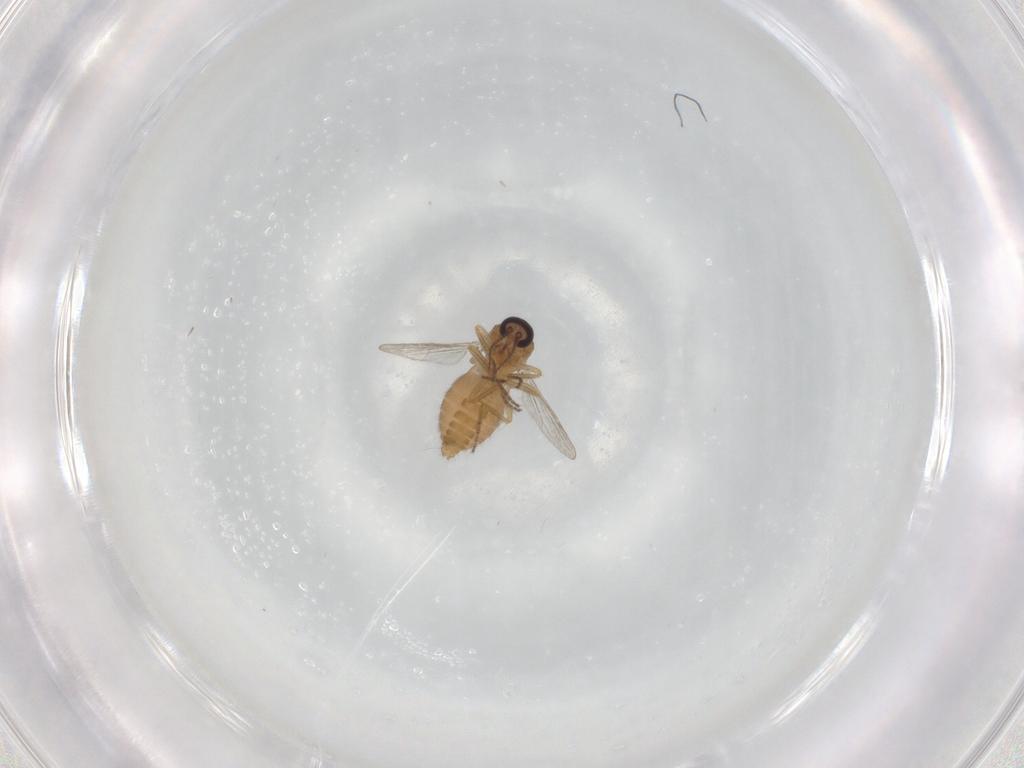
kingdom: Animalia
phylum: Arthropoda
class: Insecta
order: Diptera
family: Ceratopogonidae
